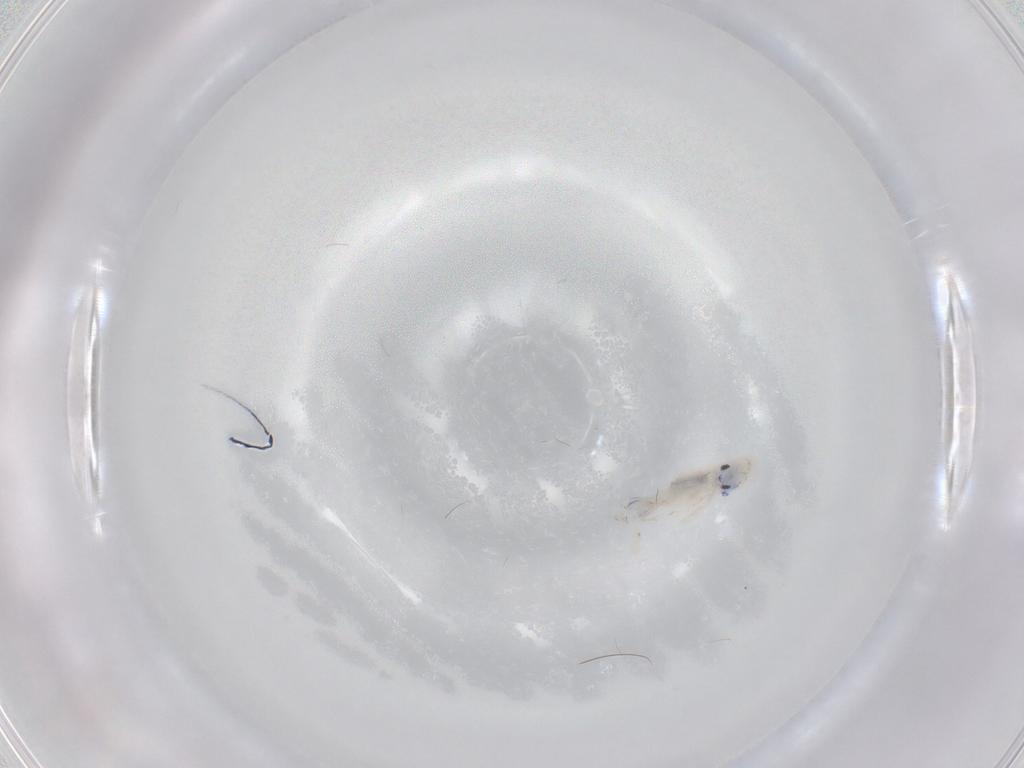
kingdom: Animalia
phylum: Arthropoda
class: Collembola
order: Entomobryomorpha
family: Entomobryidae
